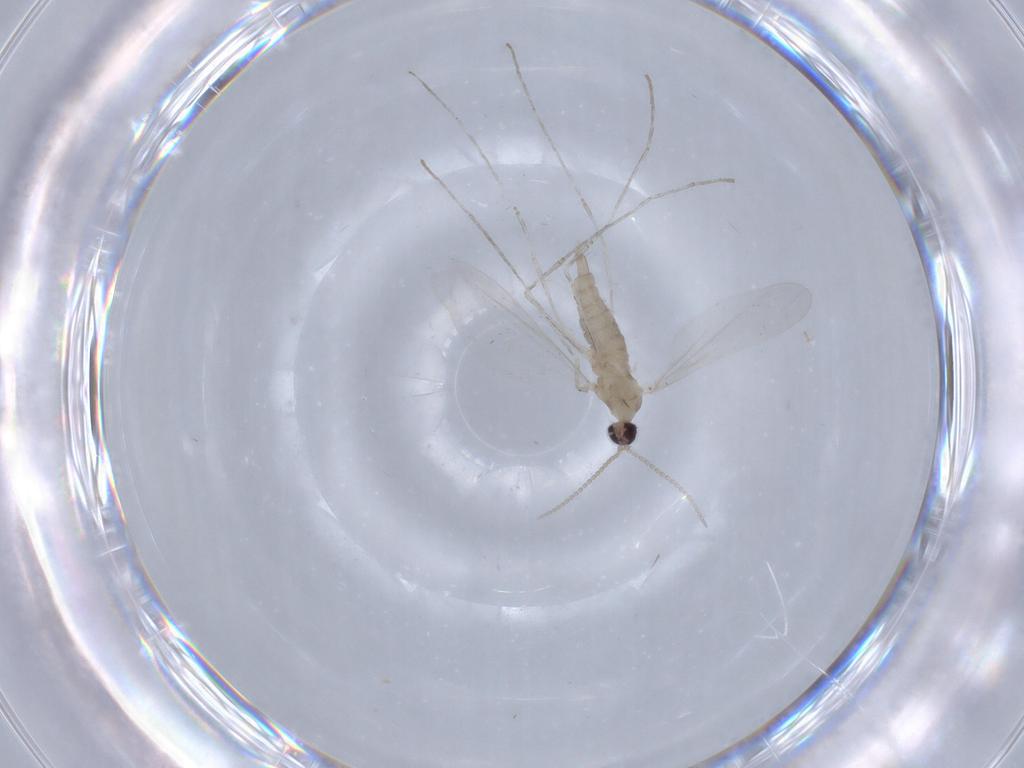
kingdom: Animalia
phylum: Arthropoda
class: Insecta
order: Diptera
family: Cecidomyiidae
